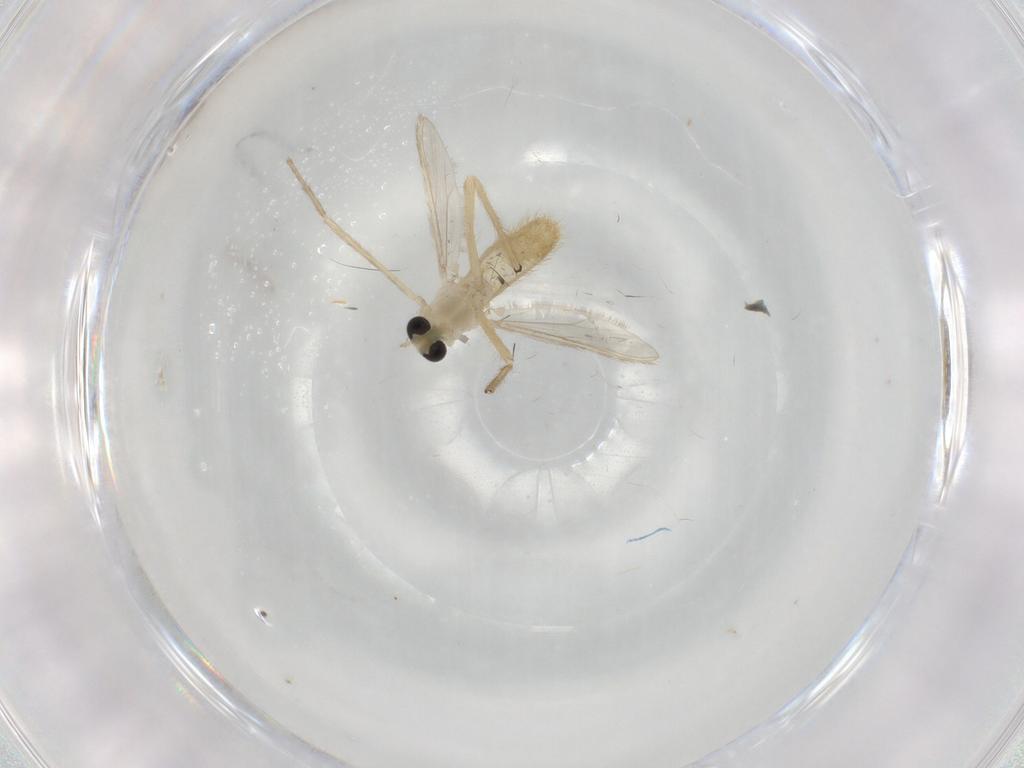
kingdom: Animalia
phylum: Arthropoda
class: Insecta
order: Diptera
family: Chironomidae
